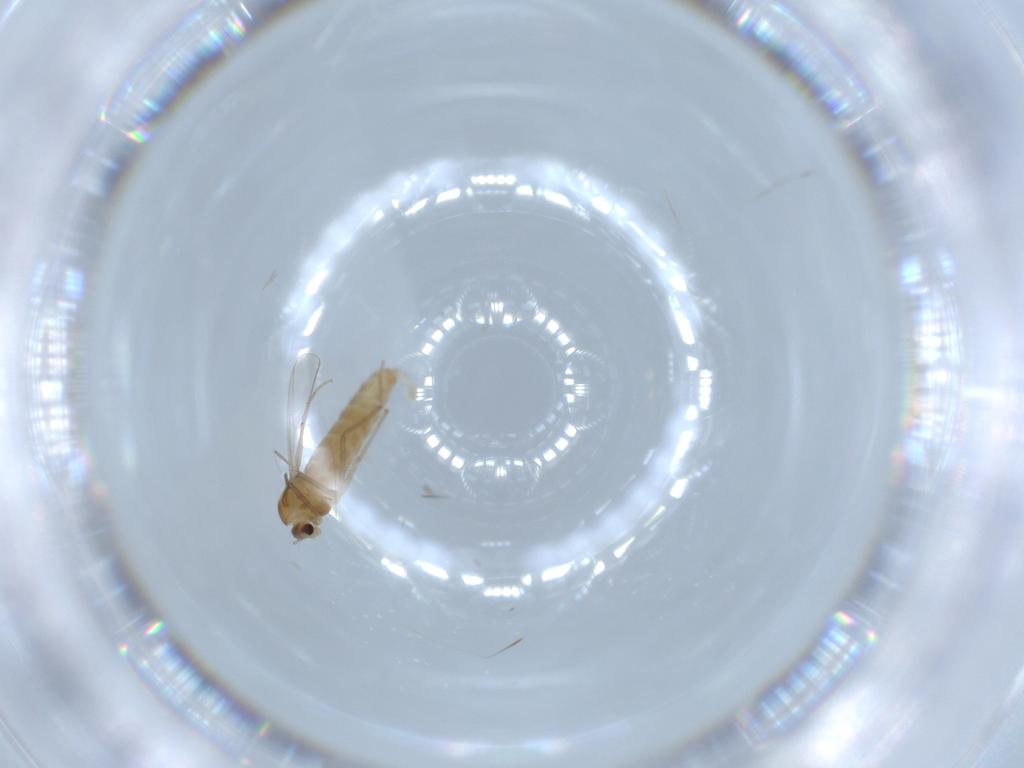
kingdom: Animalia
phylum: Arthropoda
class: Insecta
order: Diptera
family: Chironomidae
